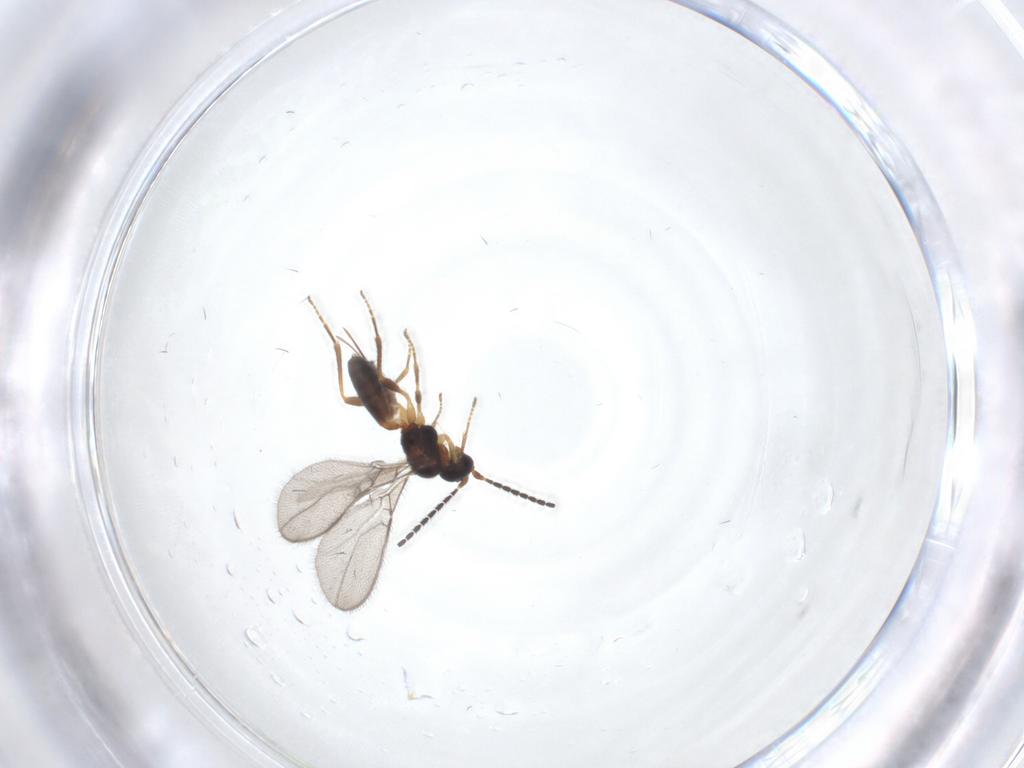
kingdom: Animalia
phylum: Arthropoda
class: Insecta
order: Hymenoptera
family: Braconidae
